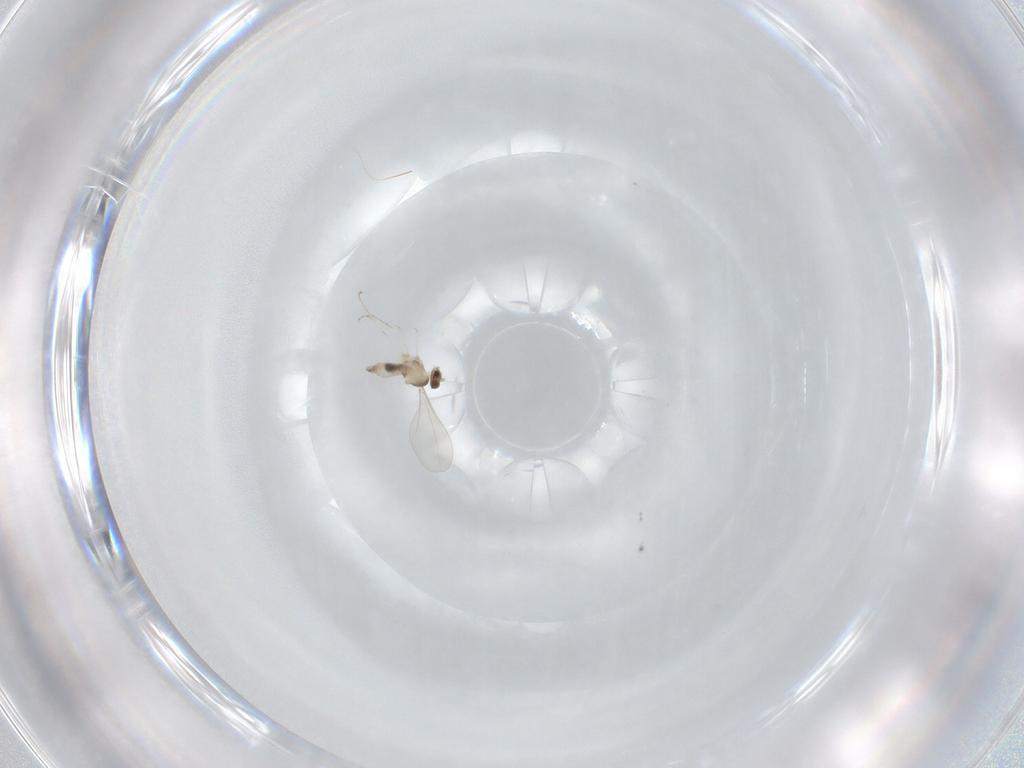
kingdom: Animalia
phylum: Arthropoda
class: Insecta
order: Diptera
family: Cecidomyiidae
